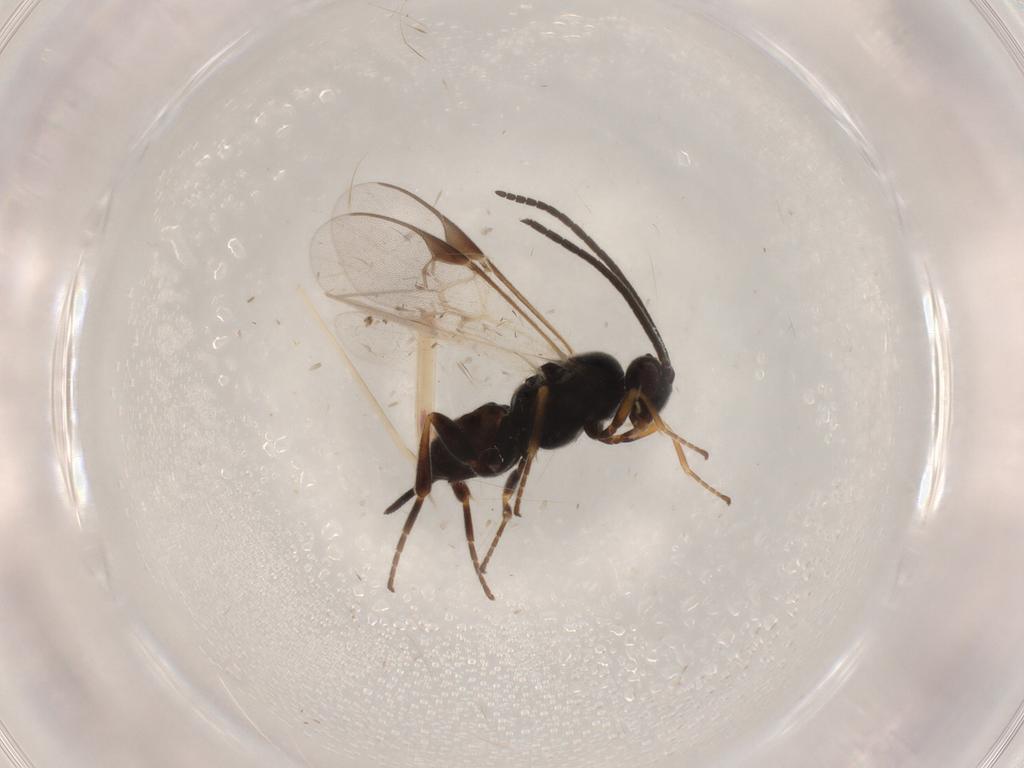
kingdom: Animalia
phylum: Arthropoda
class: Insecta
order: Hymenoptera
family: Braconidae
